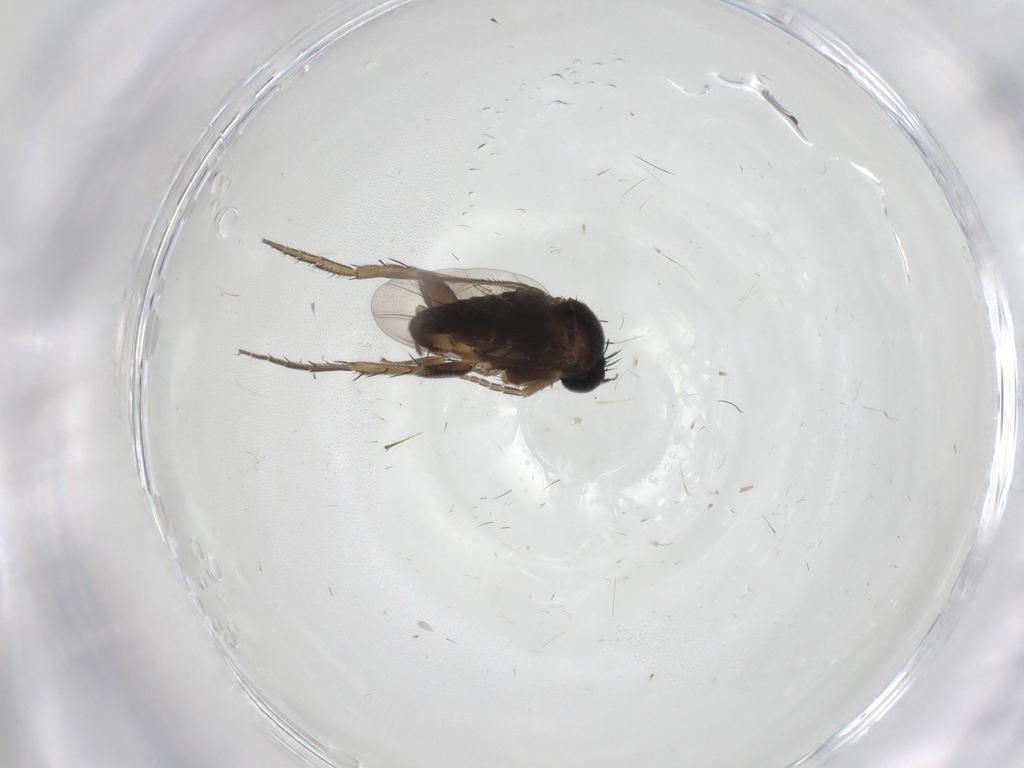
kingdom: Animalia
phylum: Arthropoda
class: Insecta
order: Diptera
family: Phoridae
